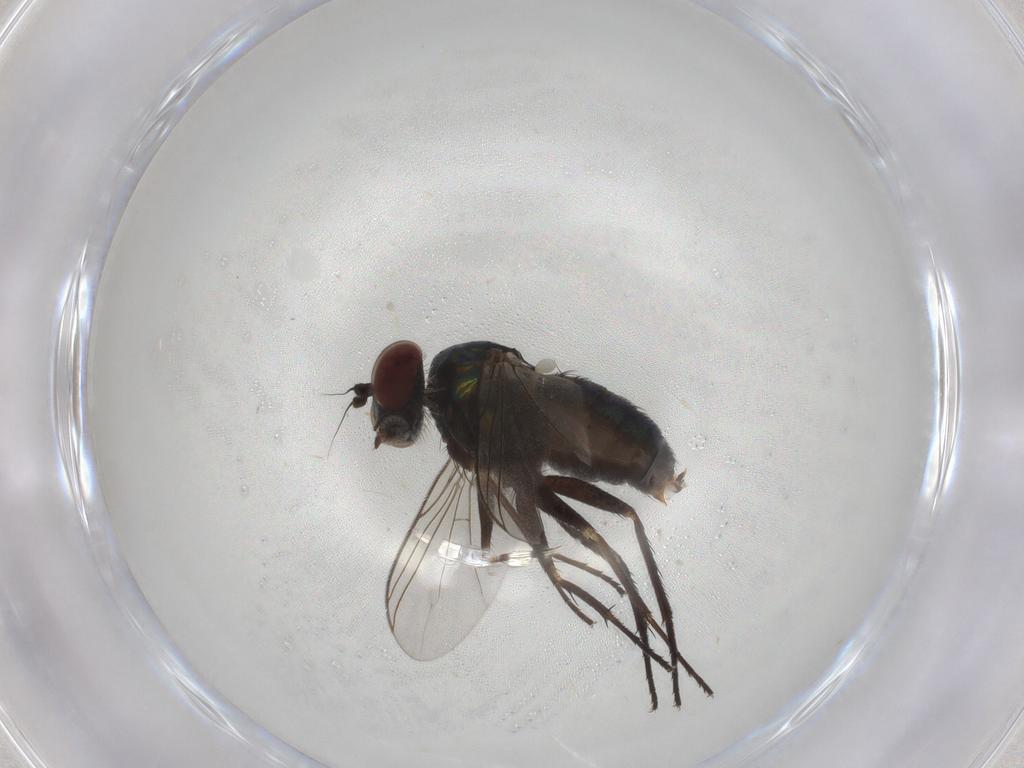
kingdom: Animalia
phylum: Arthropoda
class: Insecta
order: Diptera
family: Dolichopodidae
